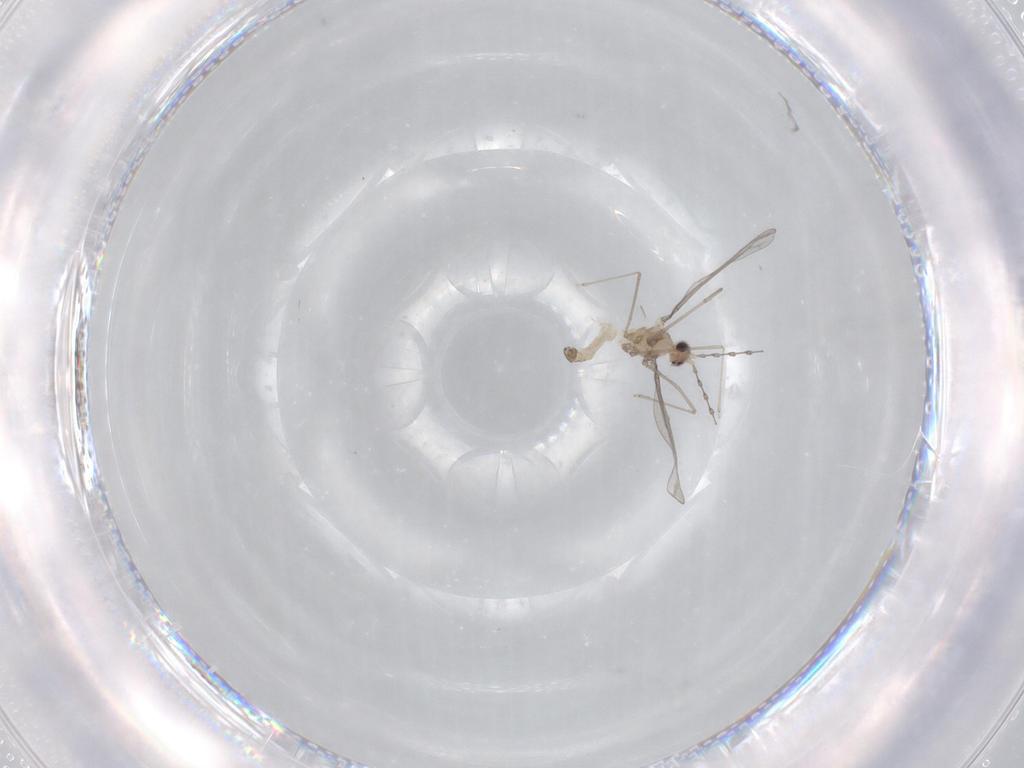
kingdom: Animalia
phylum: Arthropoda
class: Insecta
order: Diptera
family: Cecidomyiidae
